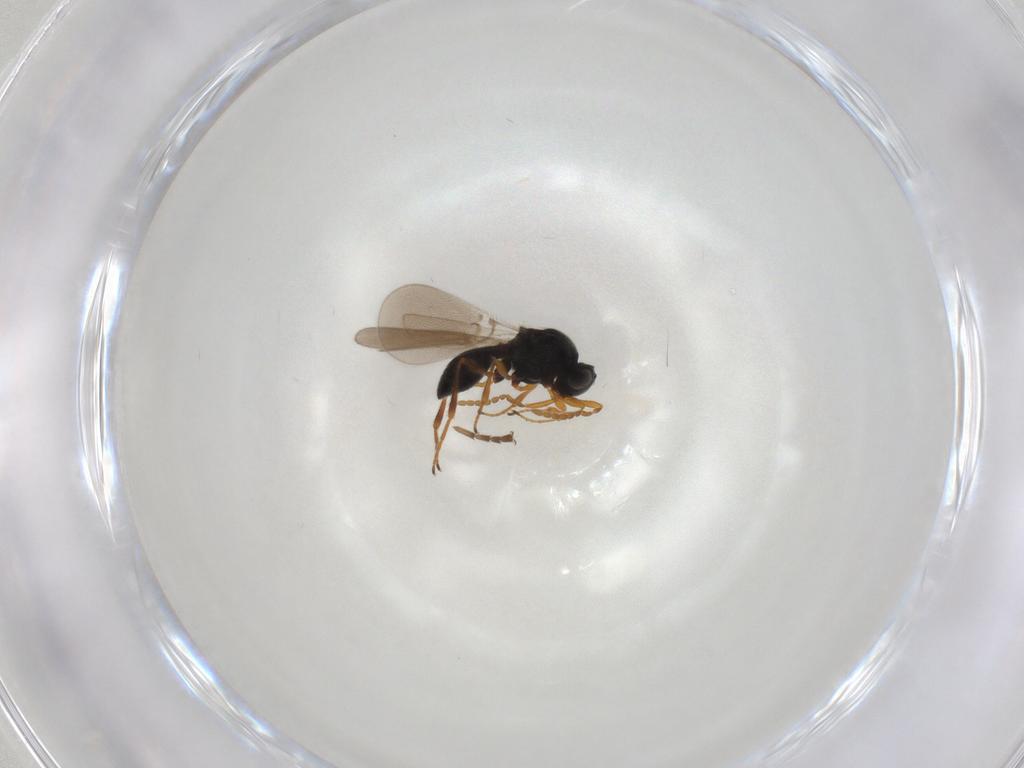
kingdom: Animalia
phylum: Arthropoda
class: Insecta
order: Hymenoptera
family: Platygastridae
